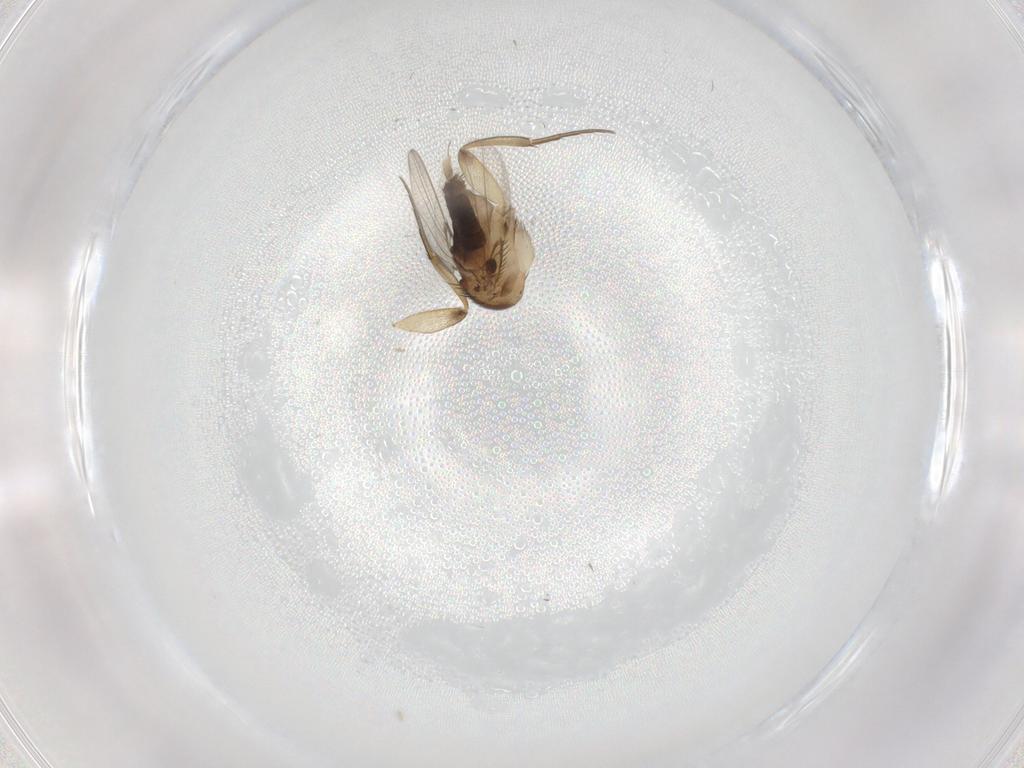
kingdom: Animalia
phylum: Arthropoda
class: Insecta
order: Diptera
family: Phoridae
